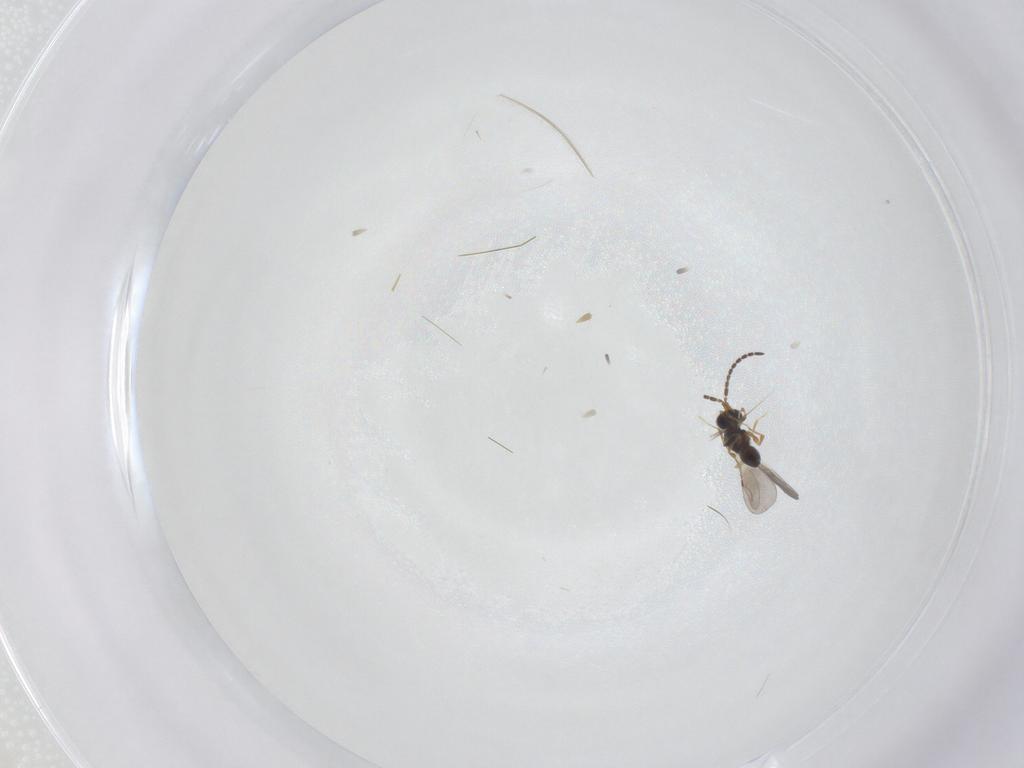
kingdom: Animalia
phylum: Arthropoda
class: Insecta
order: Hymenoptera
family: Ceraphronidae
